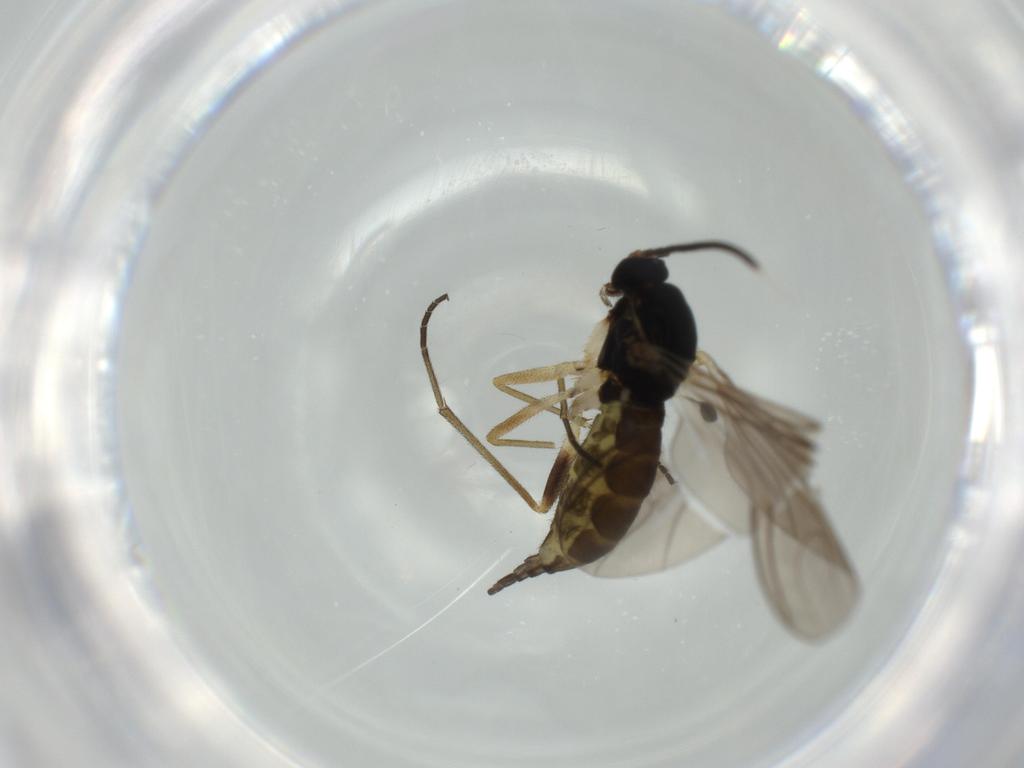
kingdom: Animalia
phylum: Arthropoda
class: Insecta
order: Diptera
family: Sciaridae
